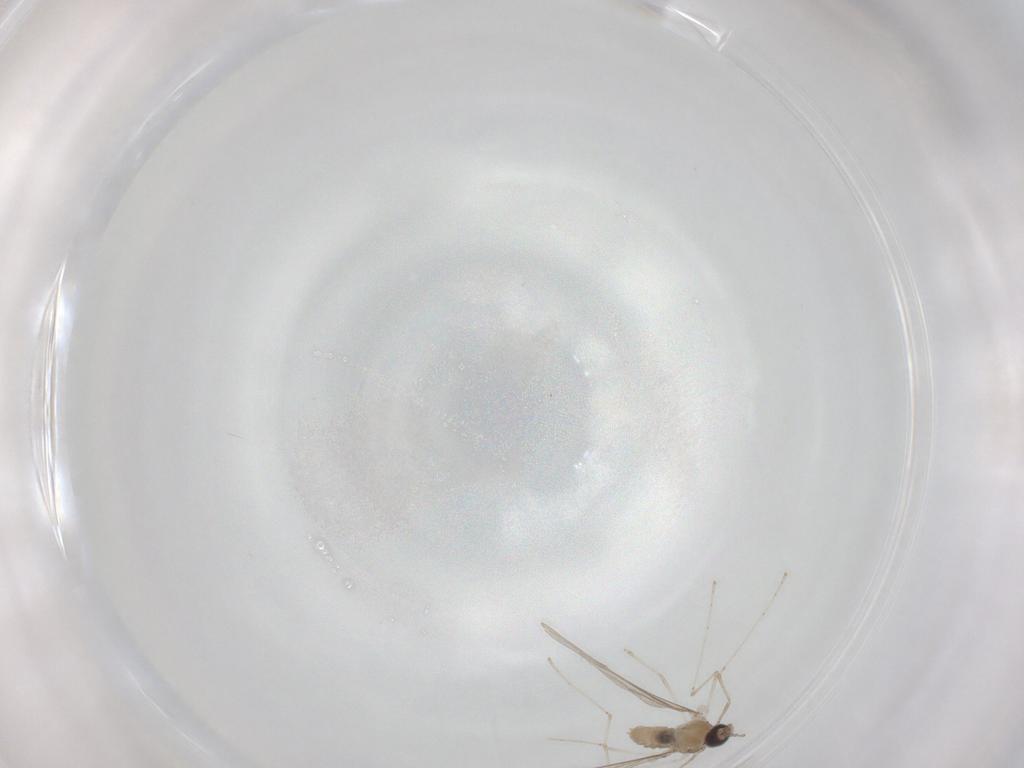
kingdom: Animalia
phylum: Arthropoda
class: Insecta
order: Diptera
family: Cecidomyiidae
